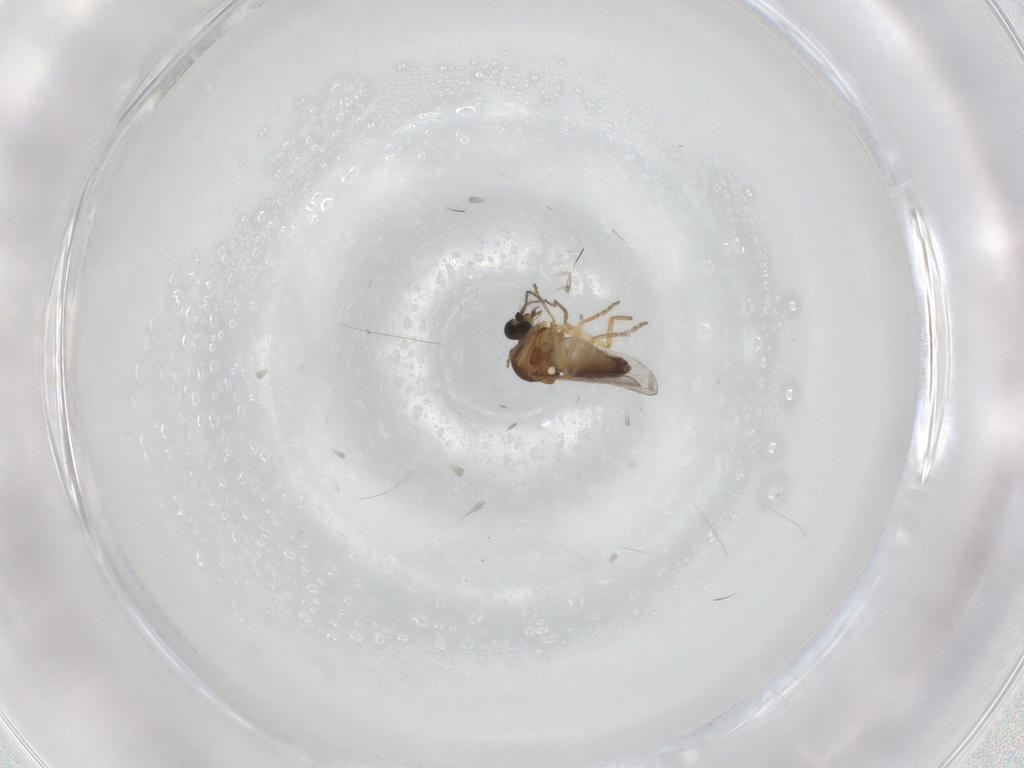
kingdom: Animalia
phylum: Arthropoda
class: Insecta
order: Diptera
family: Ceratopogonidae
